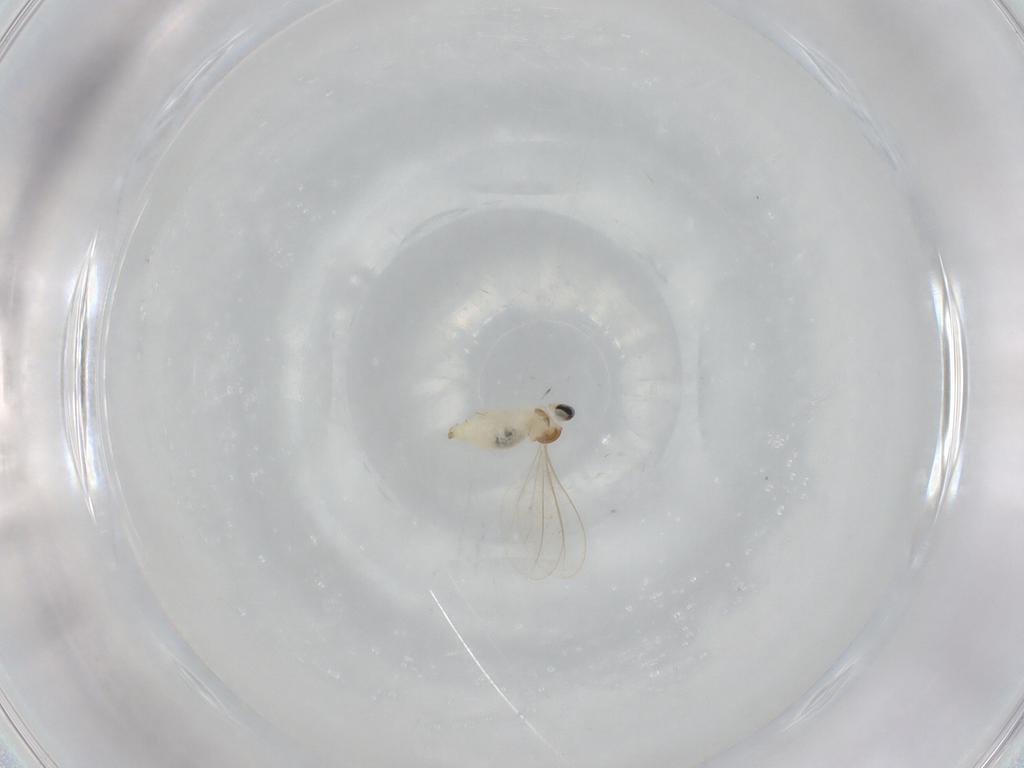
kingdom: Animalia
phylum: Arthropoda
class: Insecta
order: Diptera
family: Cecidomyiidae
